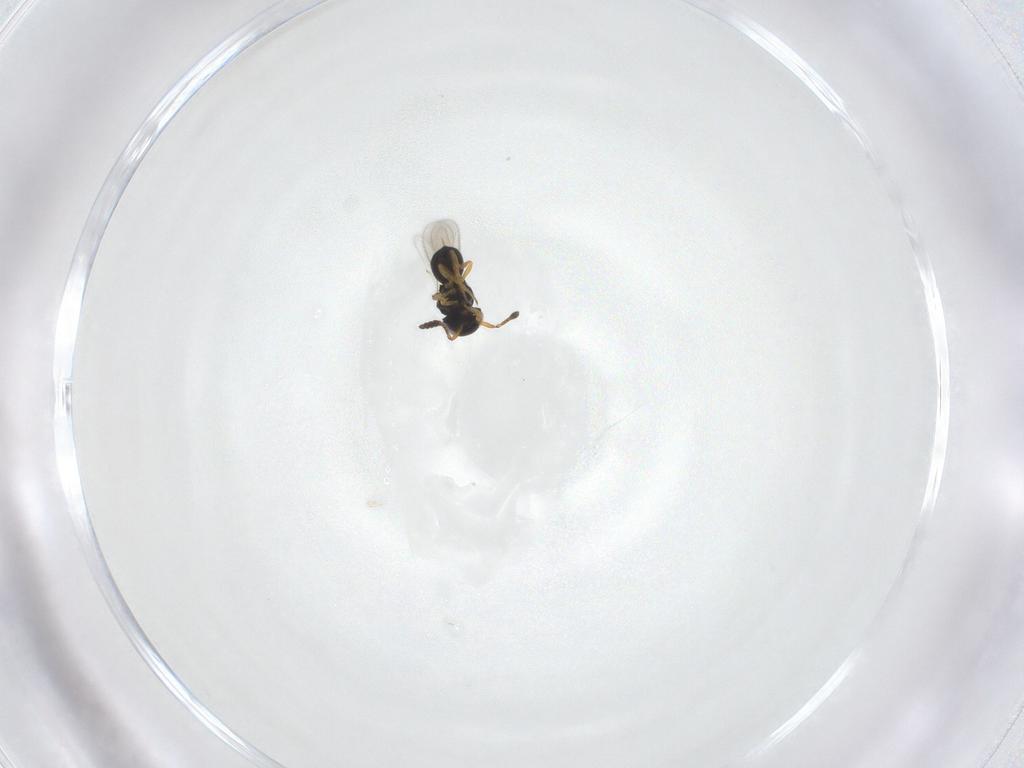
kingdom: Animalia
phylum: Arthropoda
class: Insecta
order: Hymenoptera
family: Scelionidae
